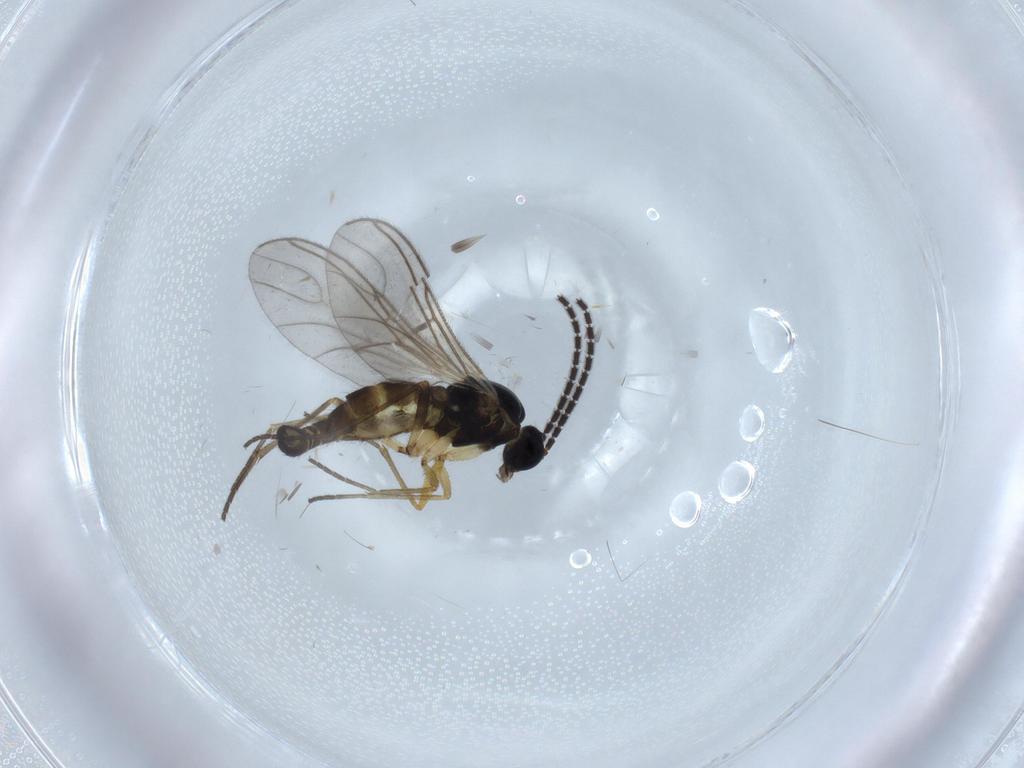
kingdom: Animalia
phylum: Arthropoda
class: Insecta
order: Diptera
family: Sciaridae
